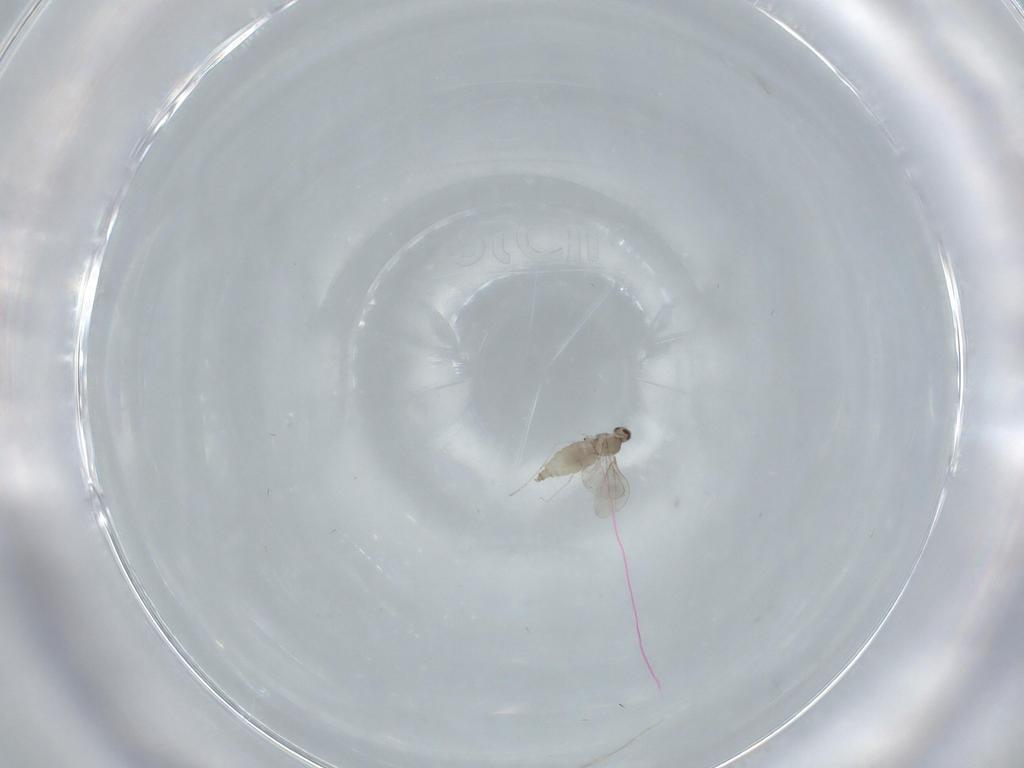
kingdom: Animalia
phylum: Arthropoda
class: Insecta
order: Diptera
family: Cecidomyiidae
